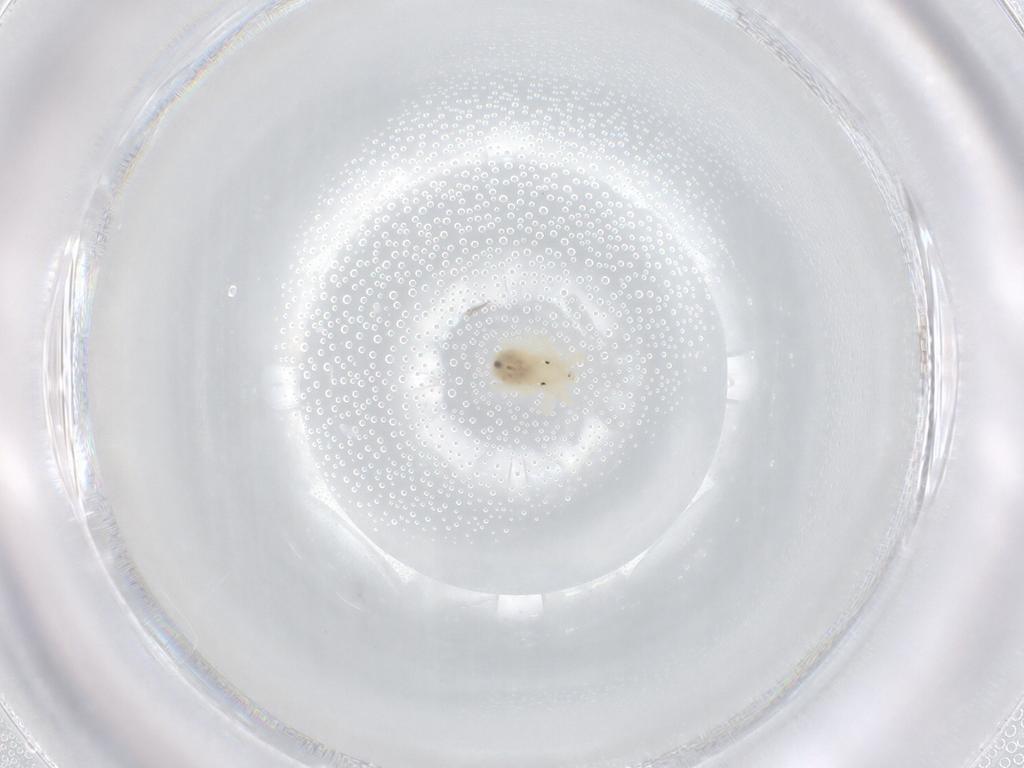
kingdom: Animalia
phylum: Arthropoda
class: Arachnida
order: Trombidiformes
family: Anystidae
